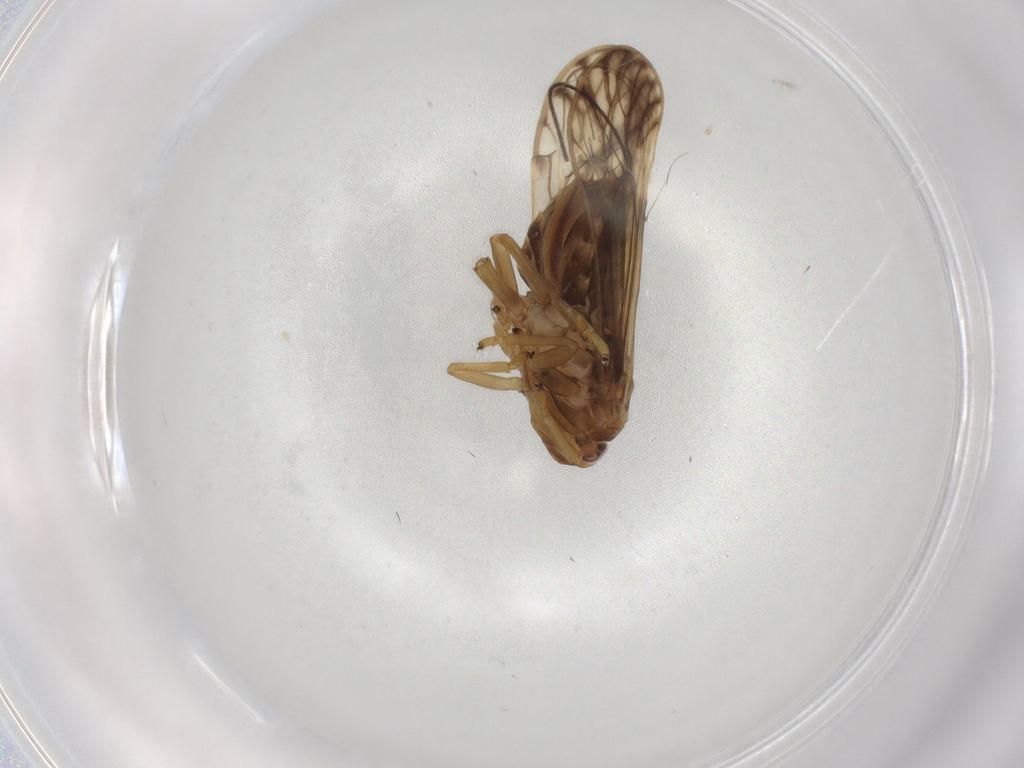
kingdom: Animalia
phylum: Arthropoda
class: Insecta
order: Hemiptera
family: Delphacidae
